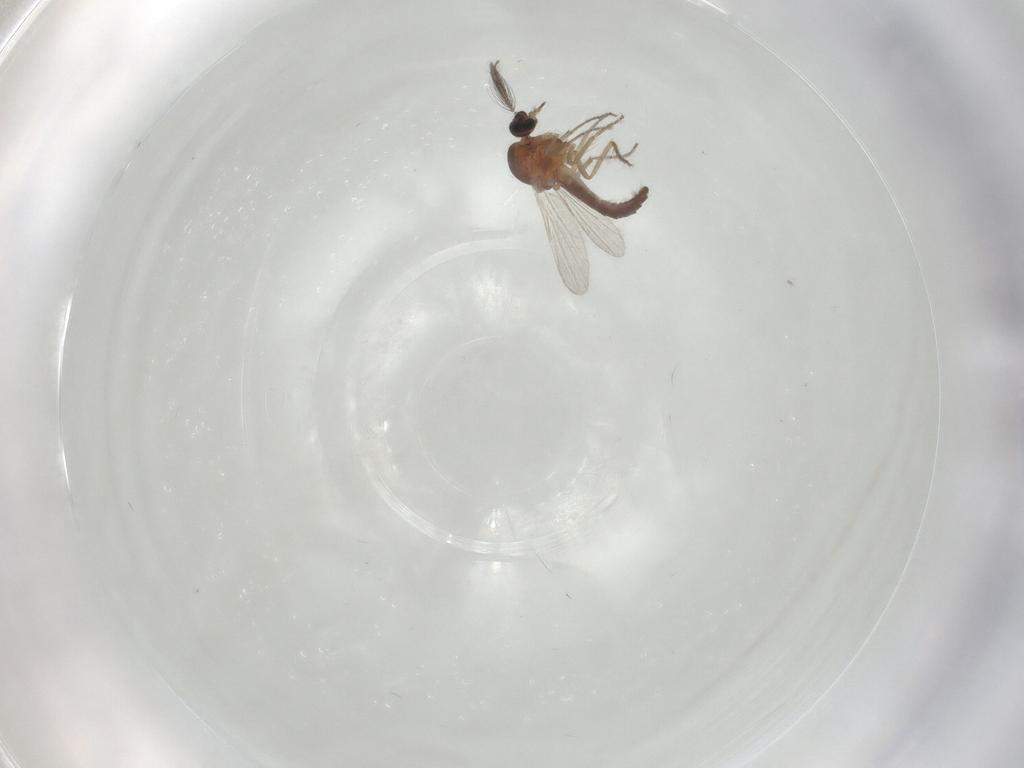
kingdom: Animalia
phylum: Arthropoda
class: Insecta
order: Diptera
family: Ceratopogonidae
